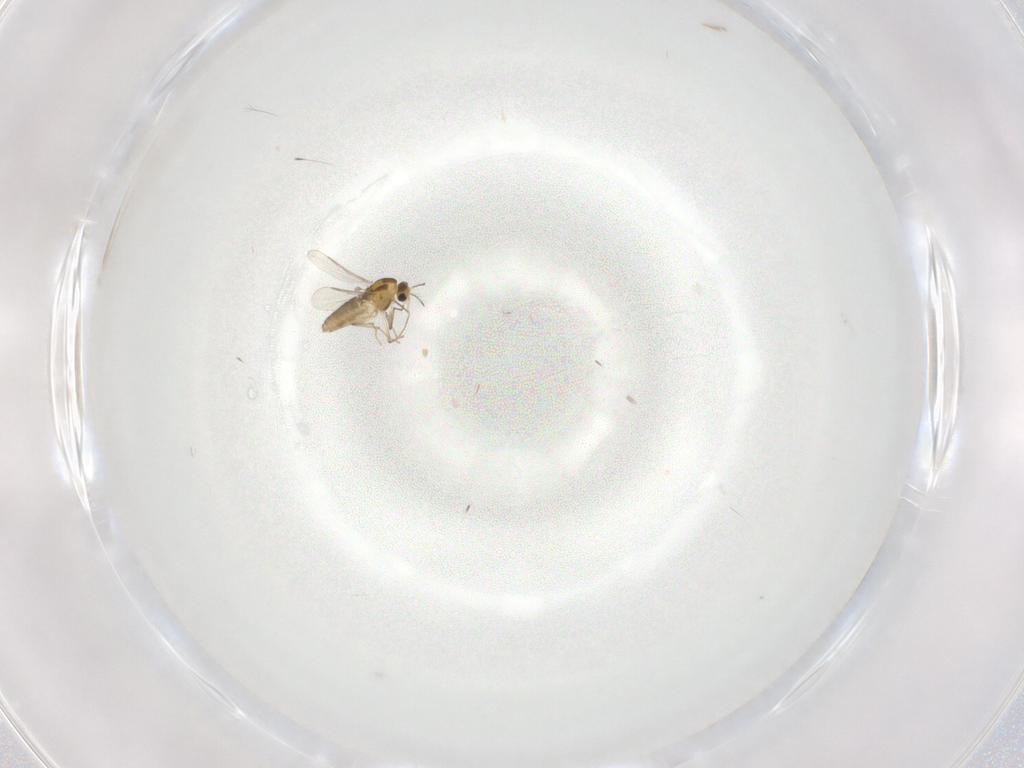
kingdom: Animalia
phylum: Arthropoda
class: Insecta
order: Diptera
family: Chironomidae
